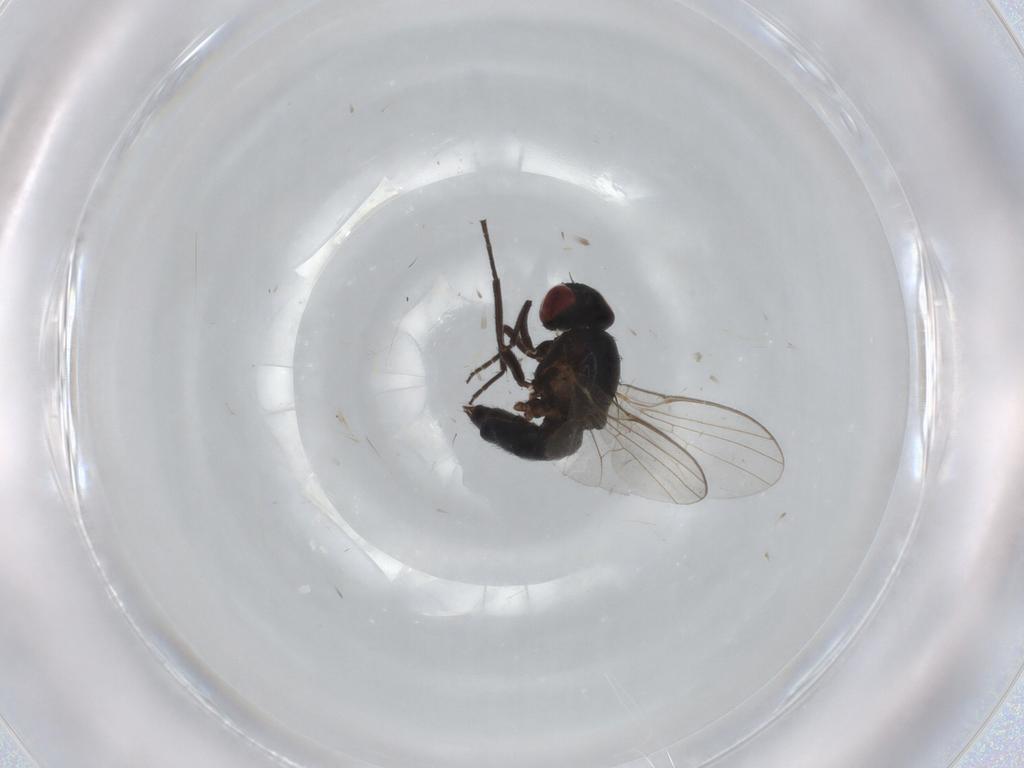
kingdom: Animalia
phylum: Arthropoda
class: Insecta
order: Diptera
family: Agromyzidae
